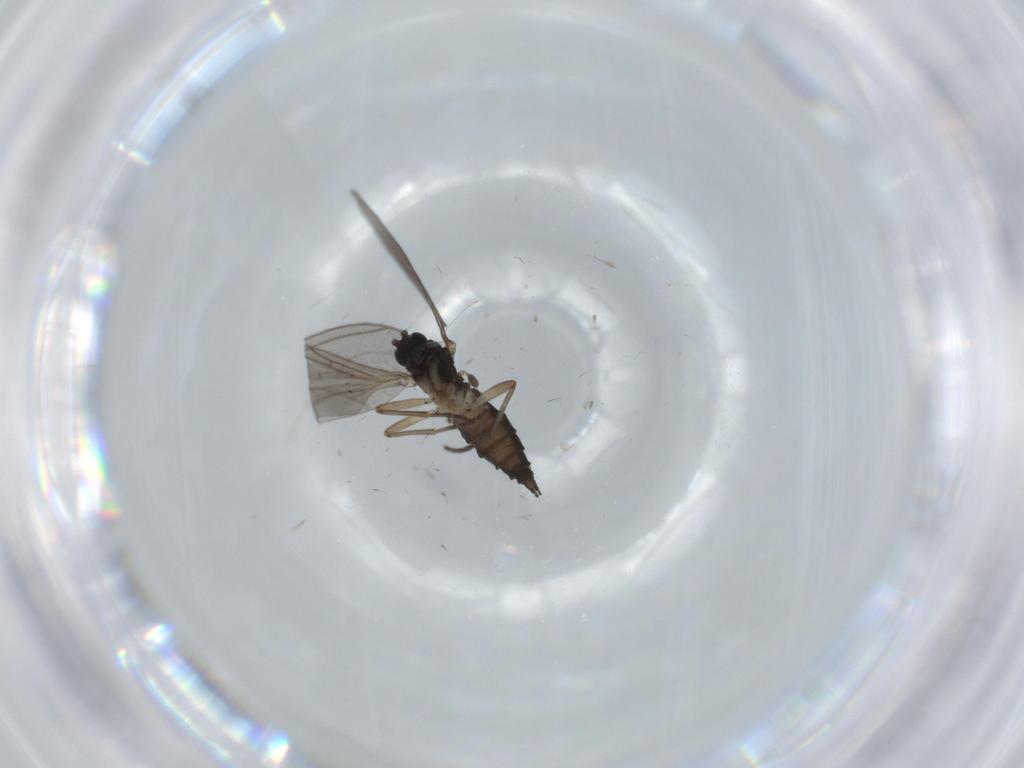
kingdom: Animalia
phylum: Arthropoda
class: Insecta
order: Diptera
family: Sciaridae
